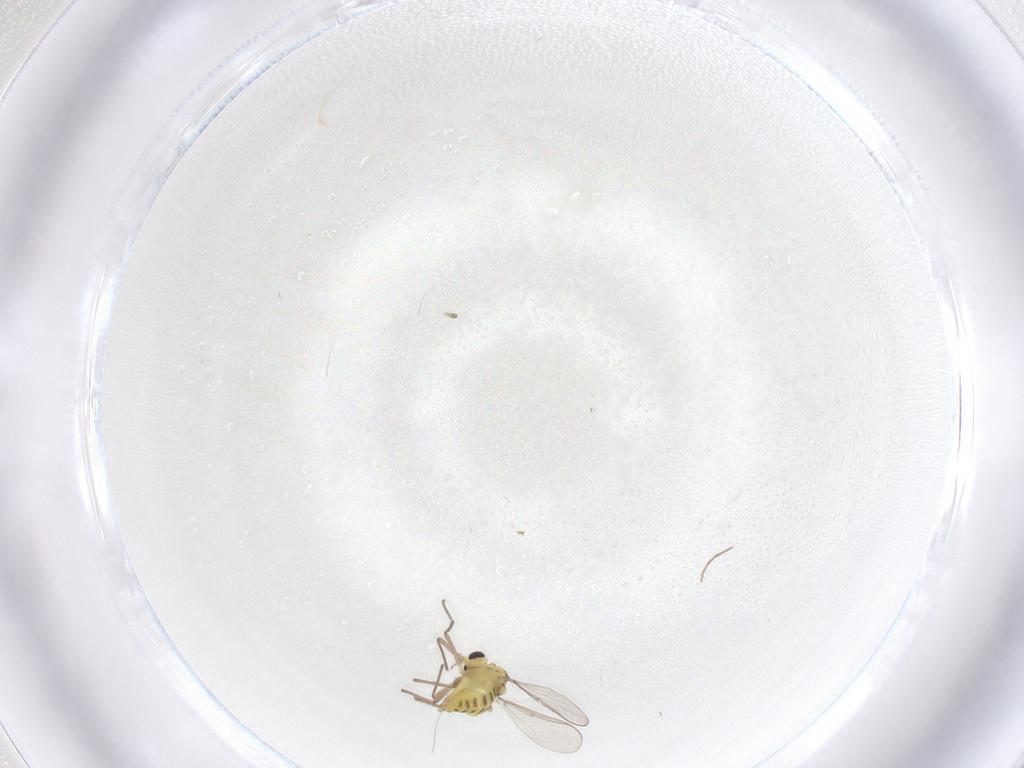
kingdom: Animalia
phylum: Arthropoda
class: Insecta
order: Diptera
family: Chironomidae
